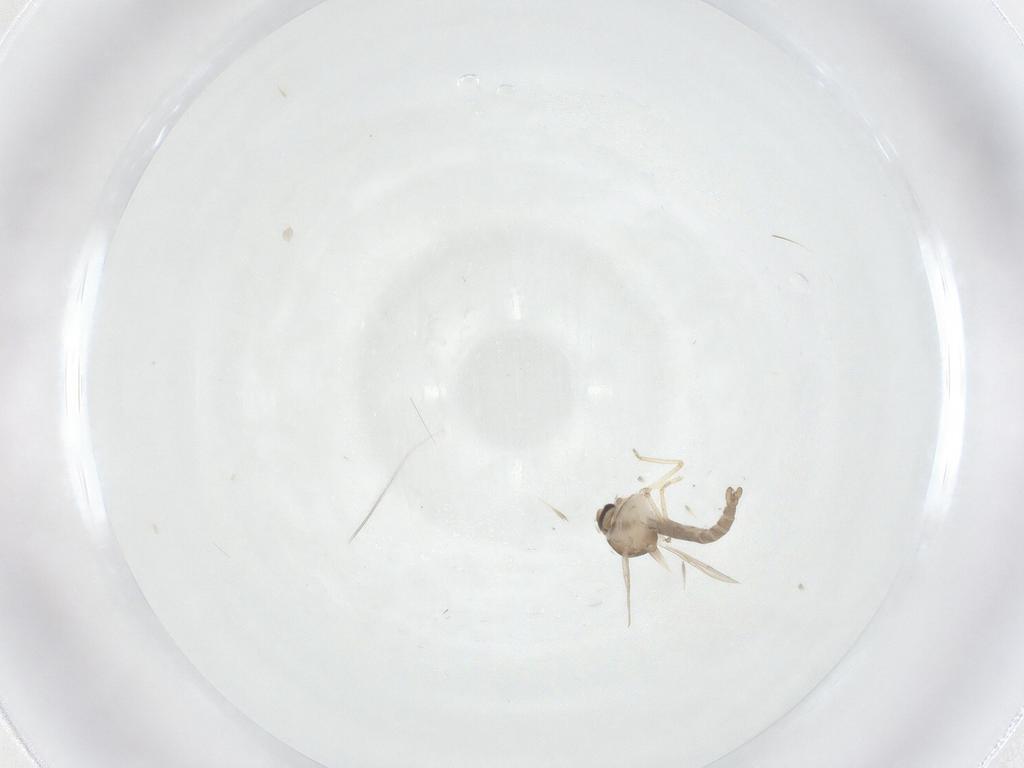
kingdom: Animalia
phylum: Arthropoda
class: Insecta
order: Diptera
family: Ceratopogonidae
